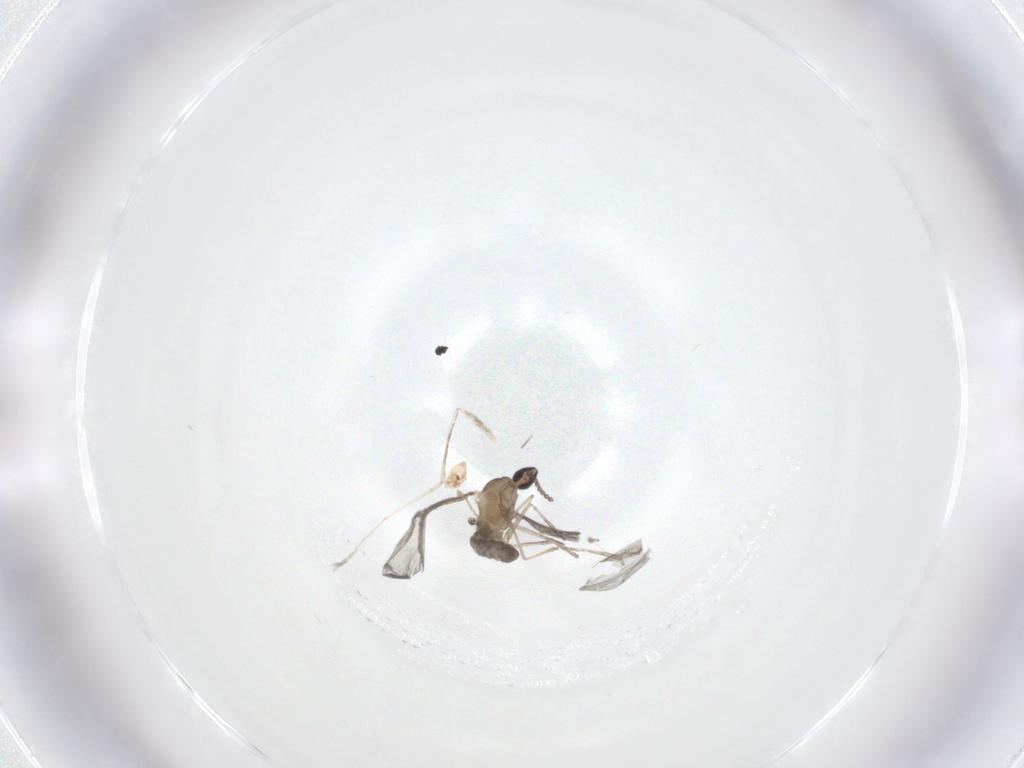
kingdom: Animalia
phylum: Arthropoda
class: Insecta
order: Diptera
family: Cecidomyiidae
